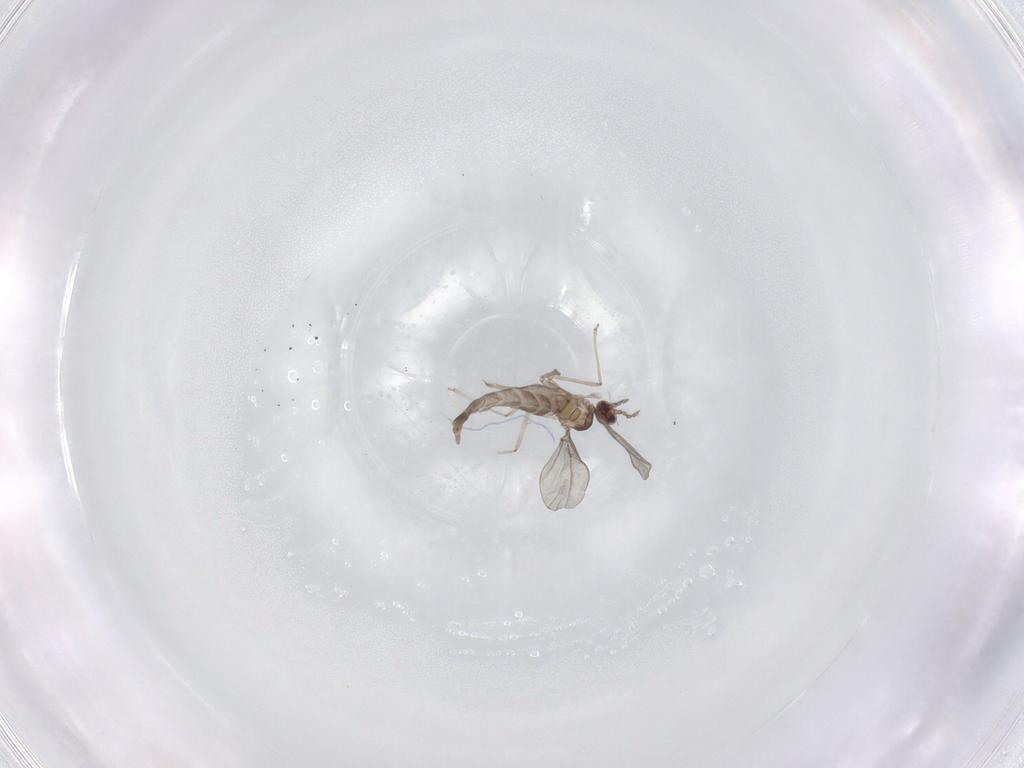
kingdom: Animalia
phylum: Arthropoda
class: Insecta
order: Diptera
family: Cecidomyiidae
